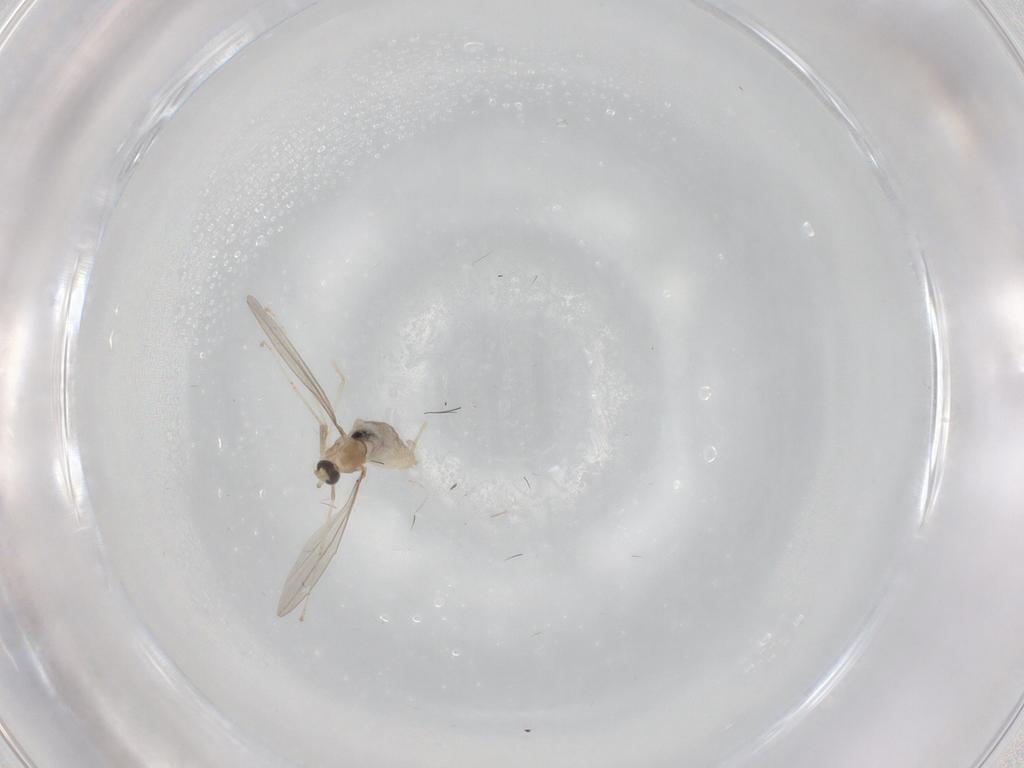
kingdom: Animalia
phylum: Arthropoda
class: Insecta
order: Diptera
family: Cecidomyiidae
